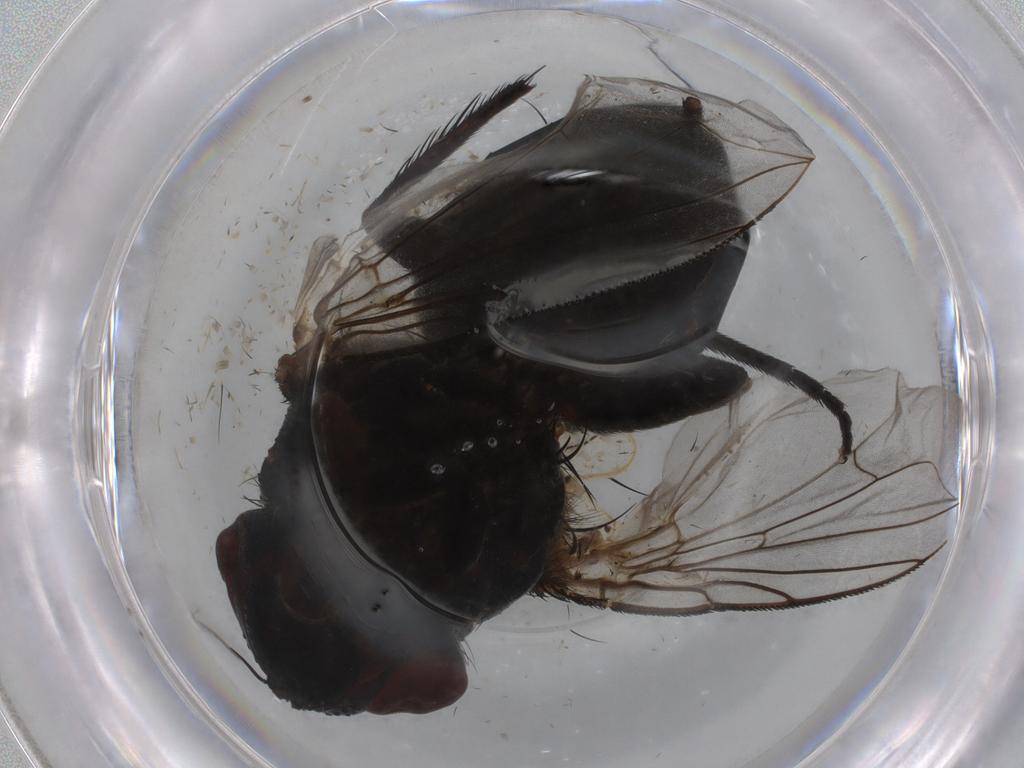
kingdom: Animalia
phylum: Arthropoda
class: Insecta
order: Diptera
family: Tachinidae
